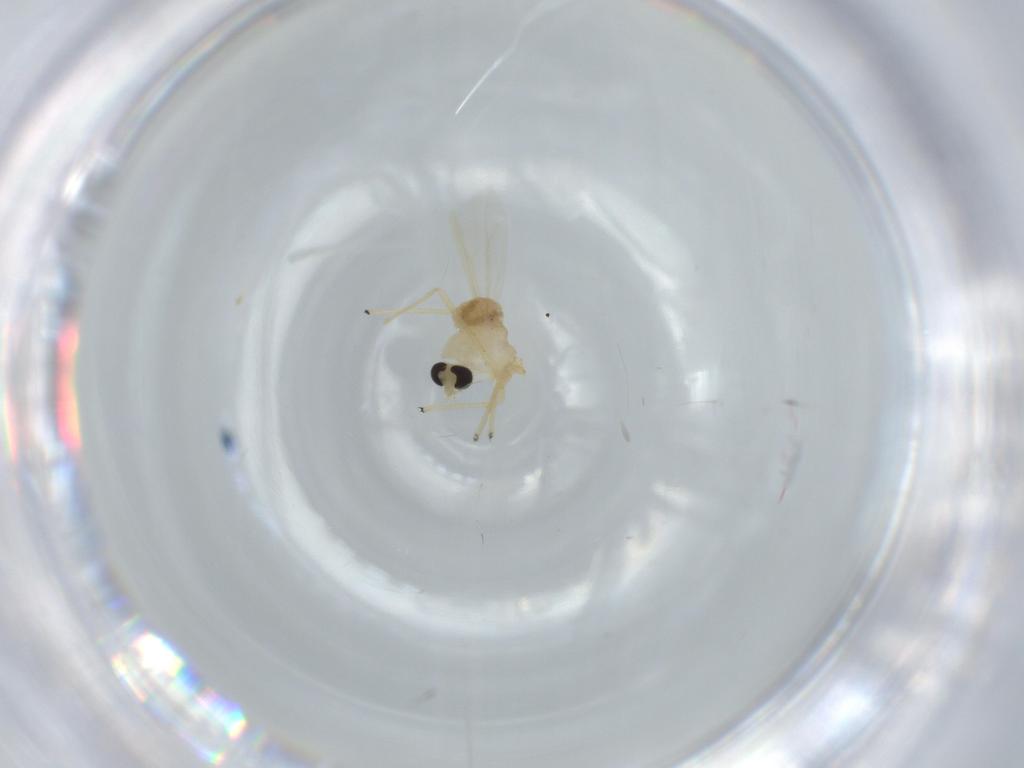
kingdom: Animalia
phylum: Arthropoda
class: Insecta
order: Diptera
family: Chironomidae
